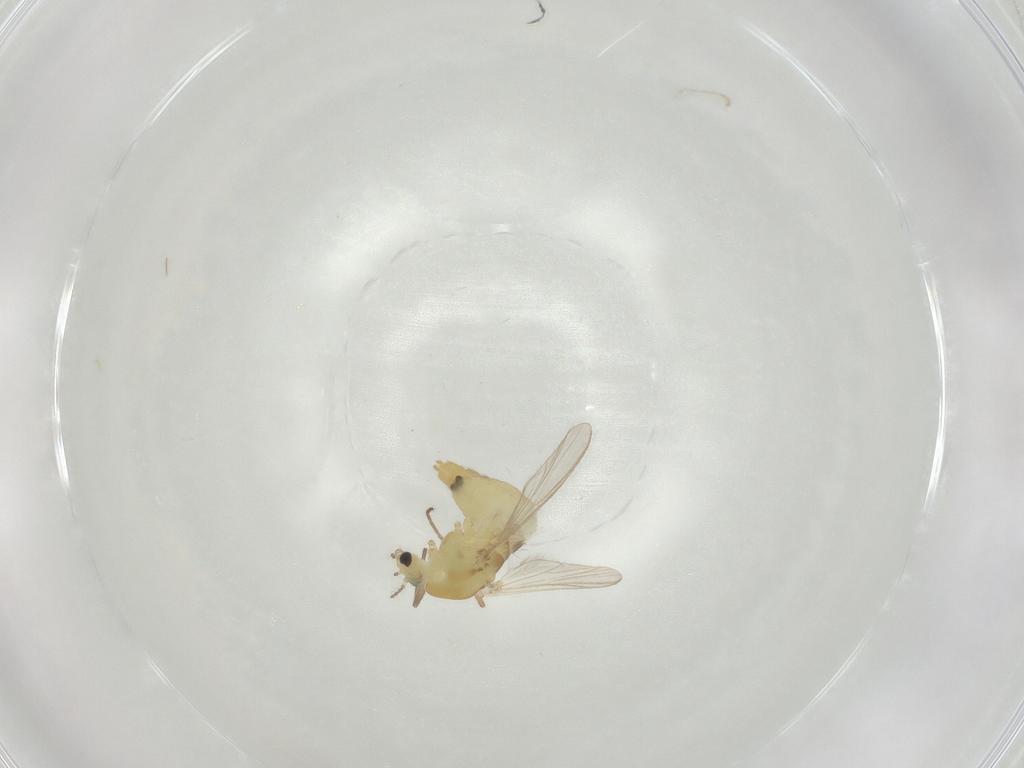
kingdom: Animalia
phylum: Arthropoda
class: Insecta
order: Diptera
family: Chironomidae
